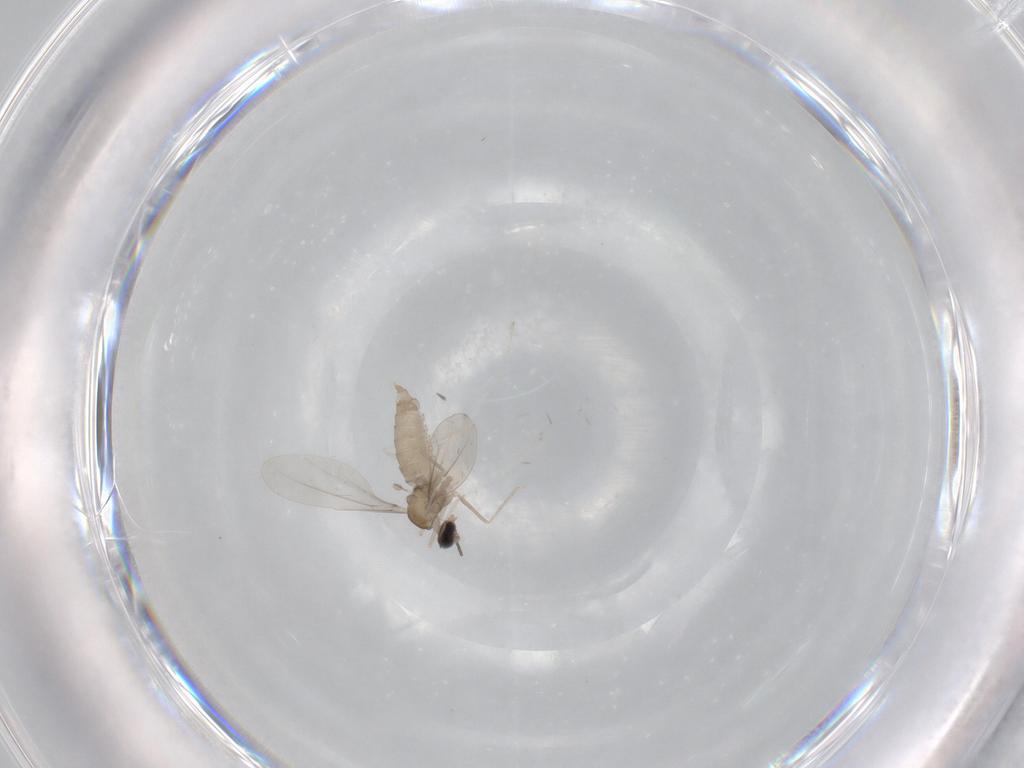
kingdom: Animalia
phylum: Arthropoda
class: Insecta
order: Diptera
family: Cecidomyiidae
